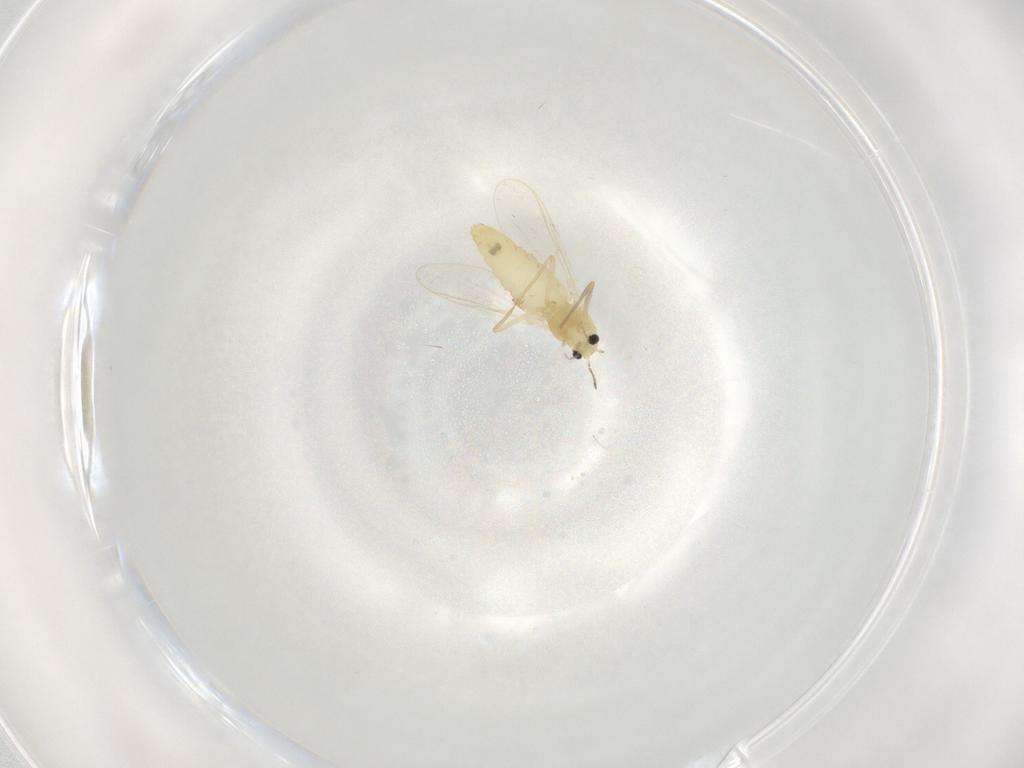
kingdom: Animalia
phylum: Arthropoda
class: Insecta
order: Diptera
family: Chironomidae
